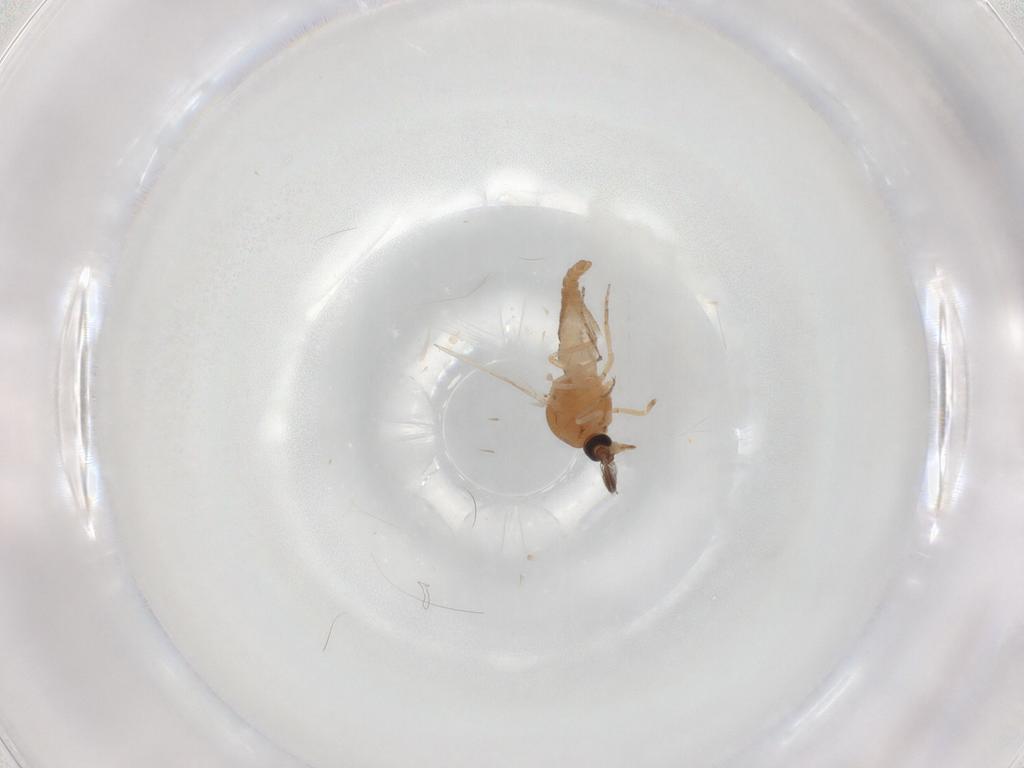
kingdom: Animalia
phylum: Arthropoda
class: Insecta
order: Diptera
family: Ceratopogonidae
